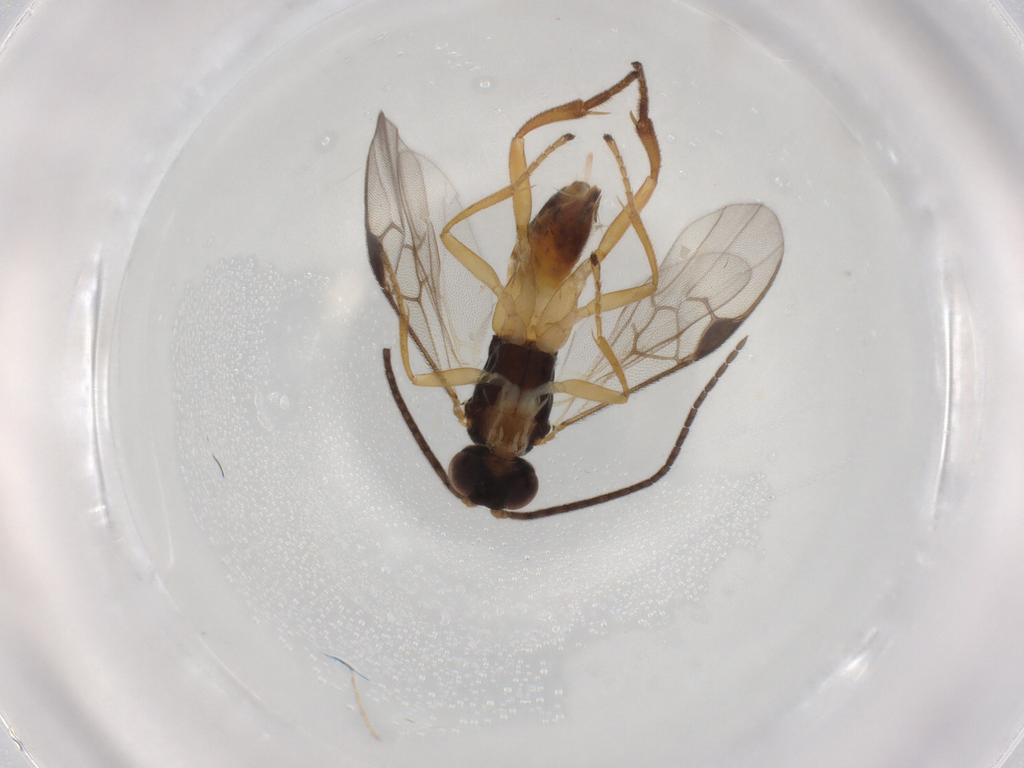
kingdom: Animalia
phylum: Arthropoda
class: Insecta
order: Hymenoptera
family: Braconidae
